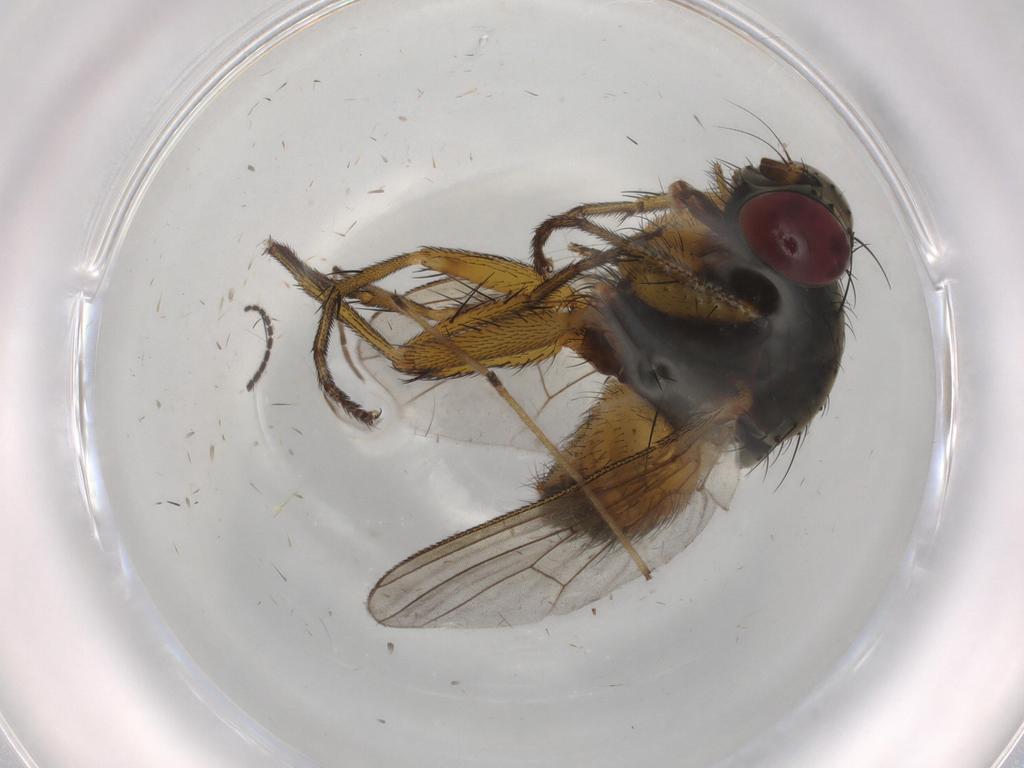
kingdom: Animalia
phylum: Arthropoda
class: Insecta
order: Diptera
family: Muscidae
